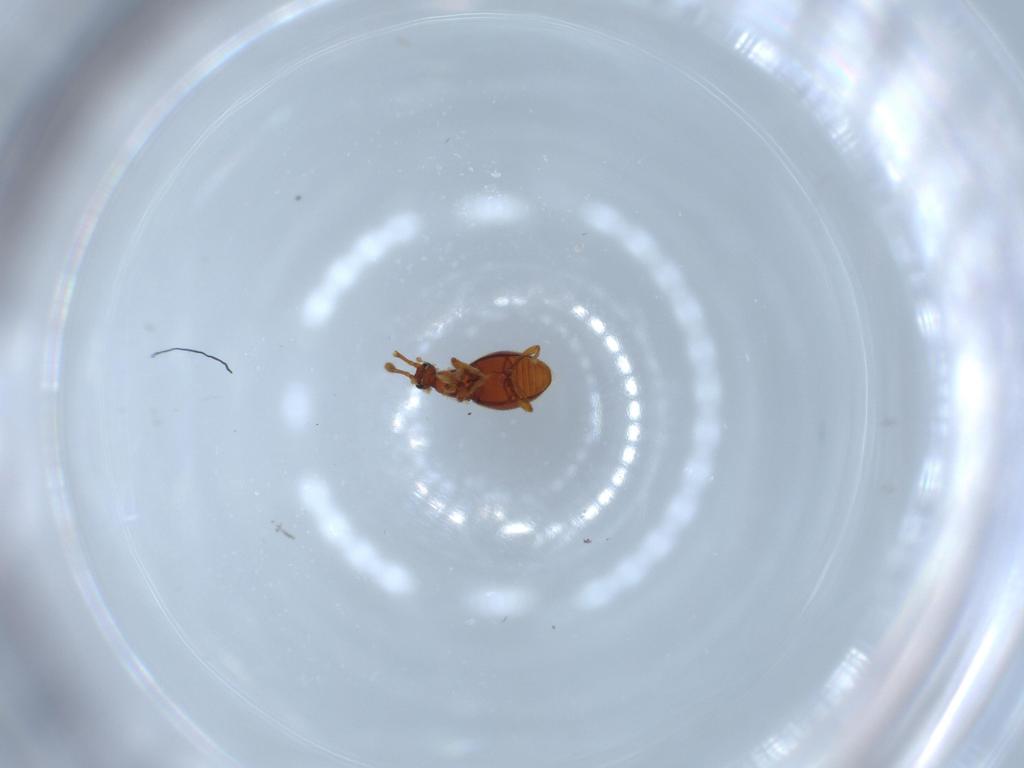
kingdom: Animalia
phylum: Arthropoda
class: Insecta
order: Coleoptera
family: Staphylinidae
